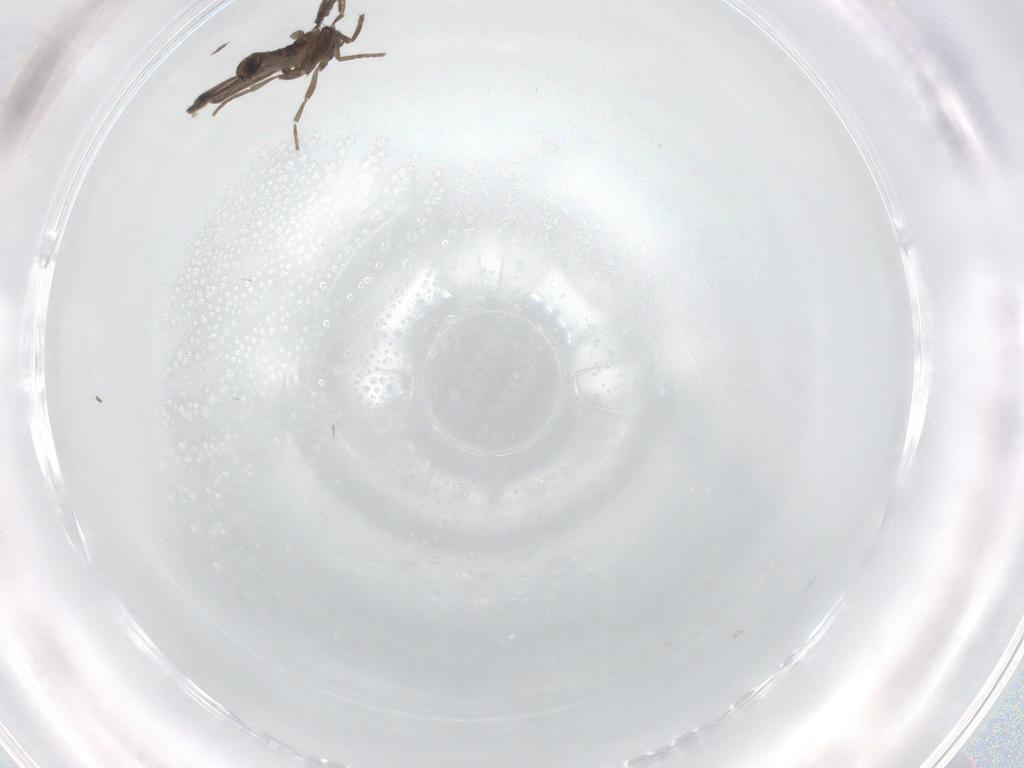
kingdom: Animalia
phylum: Arthropoda
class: Insecta
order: Diptera
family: Phoridae
